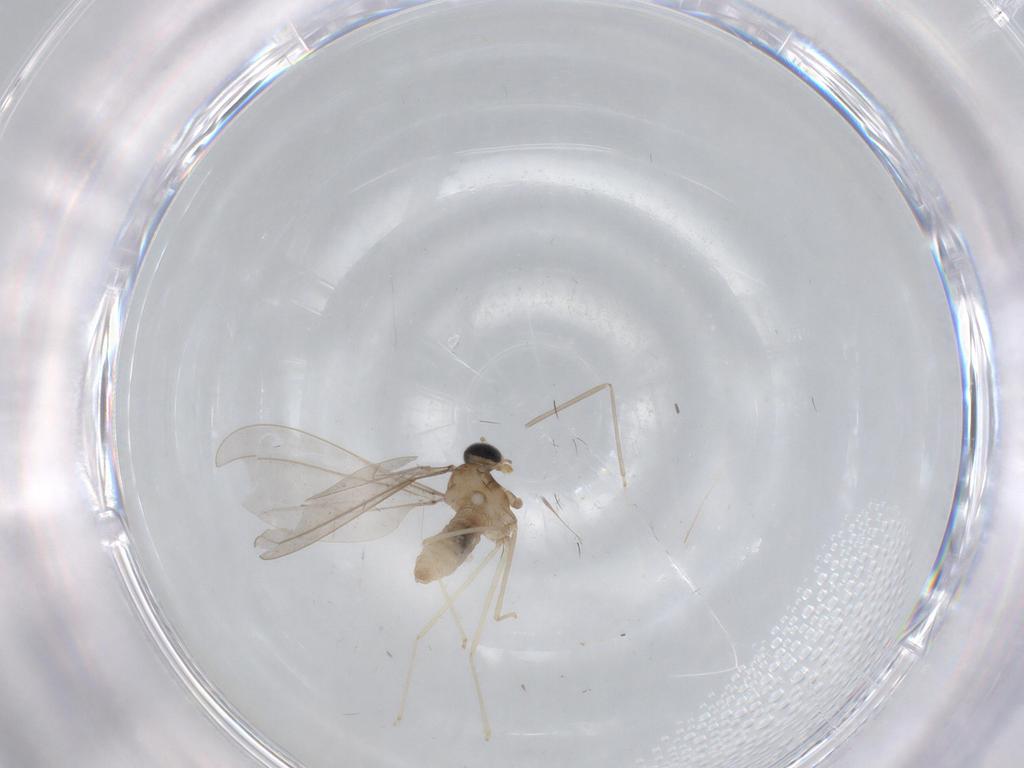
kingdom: Animalia
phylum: Arthropoda
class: Insecta
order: Diptera
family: Cecidomyiidae
